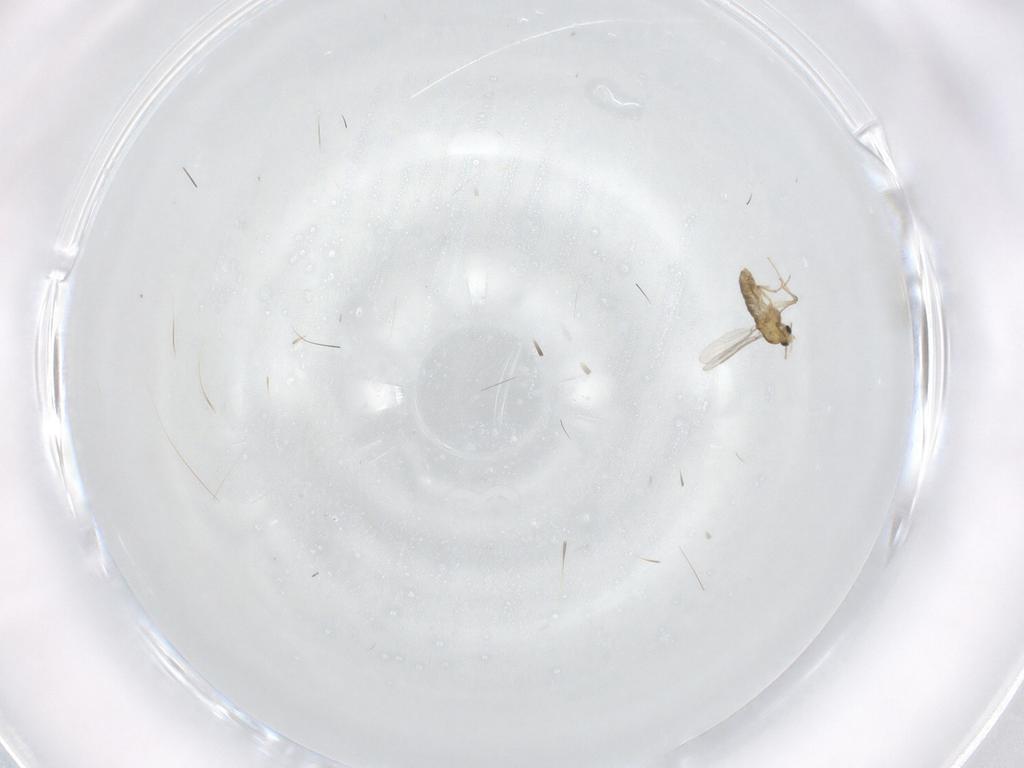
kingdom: Animalia
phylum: Arthropoda
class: Insecta
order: Diptera
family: Chironomidae
